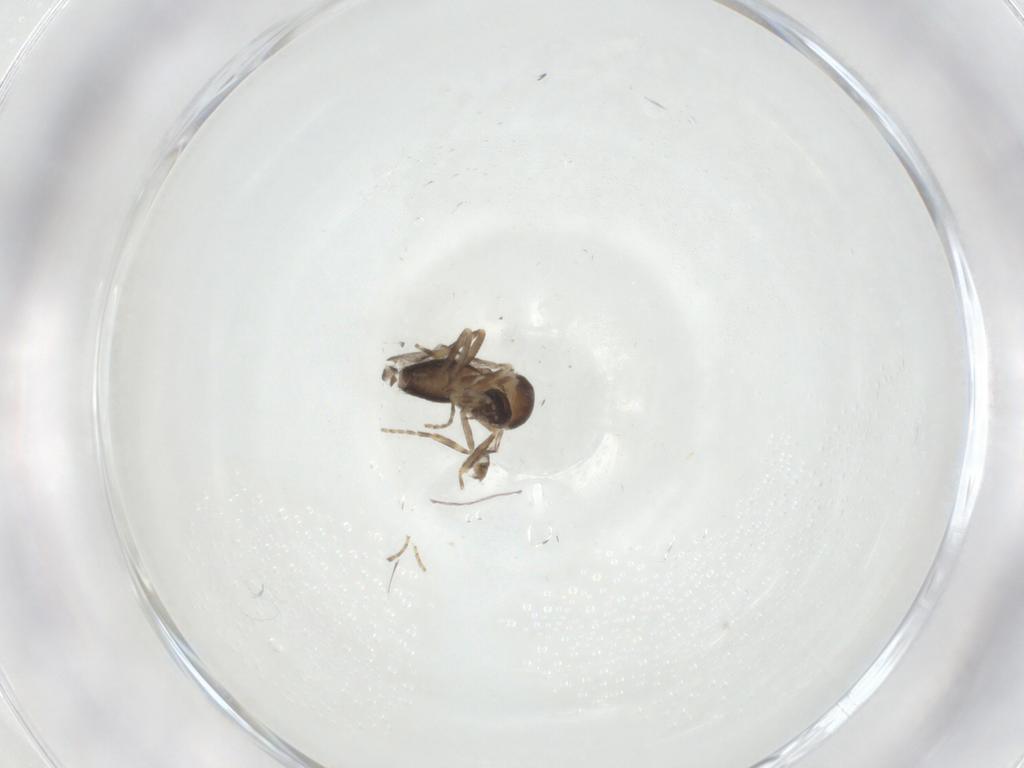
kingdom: Animalia
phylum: Arthropoda
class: Insecta
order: Diptera
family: Ceratopogonidae
